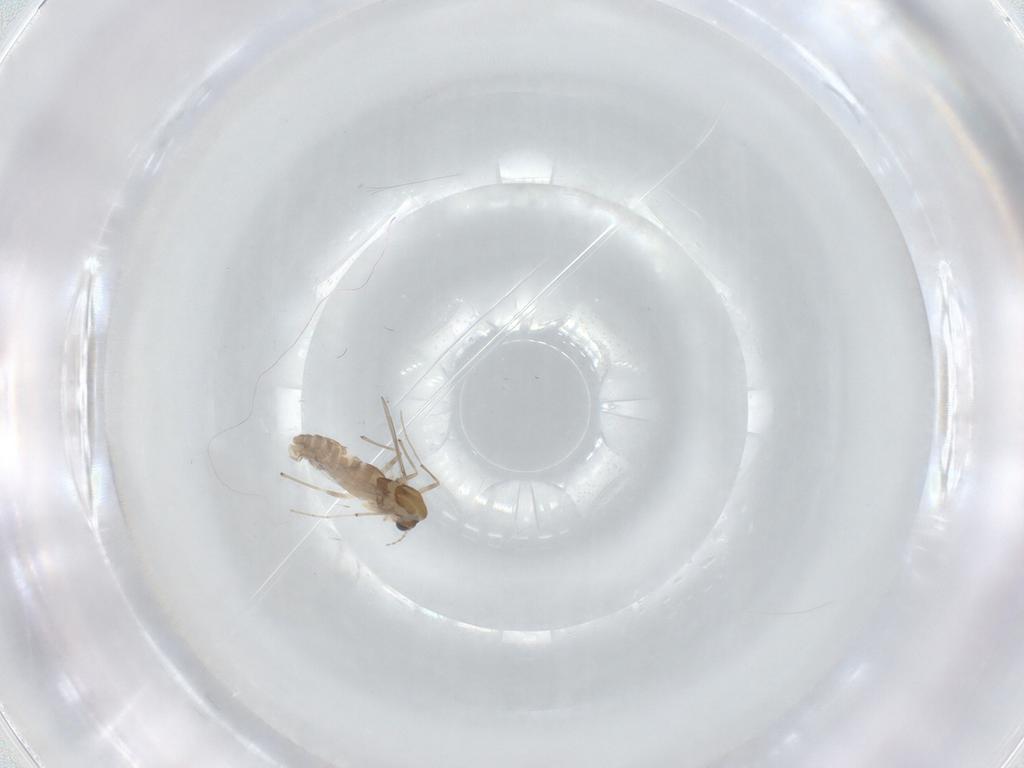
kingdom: Animalia
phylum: Arthropoda
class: Insecta
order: Diptera
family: Chironomidae
